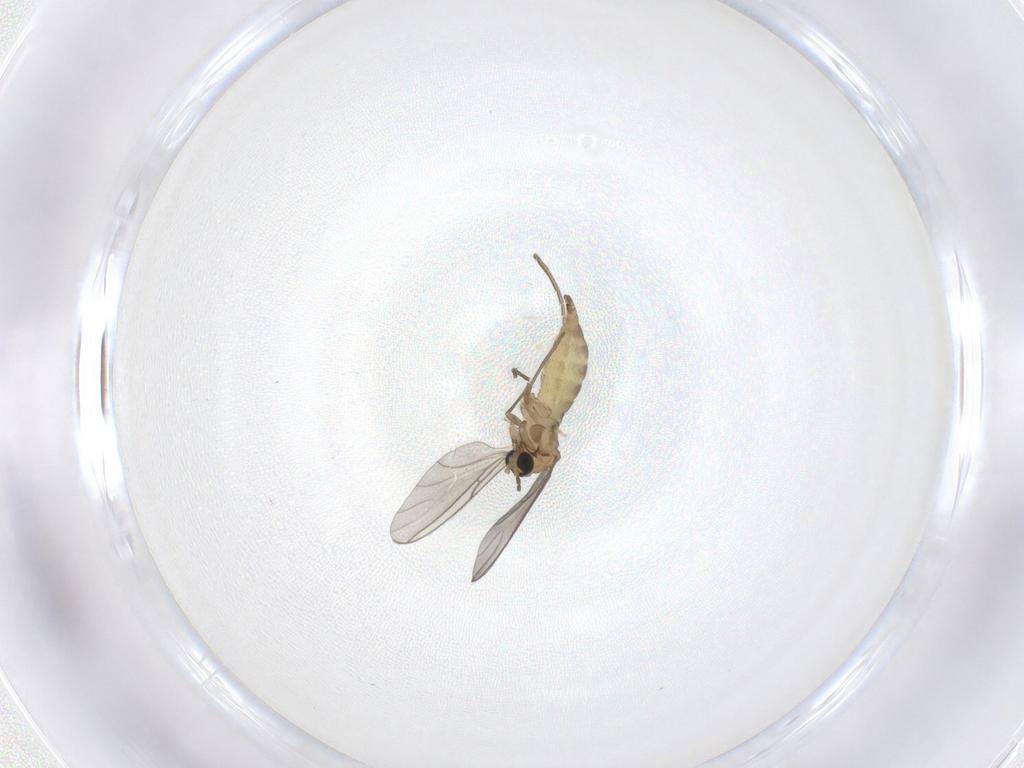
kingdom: Animalia
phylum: Arthropoda
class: Insecta
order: Diptera
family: Sciaridae
